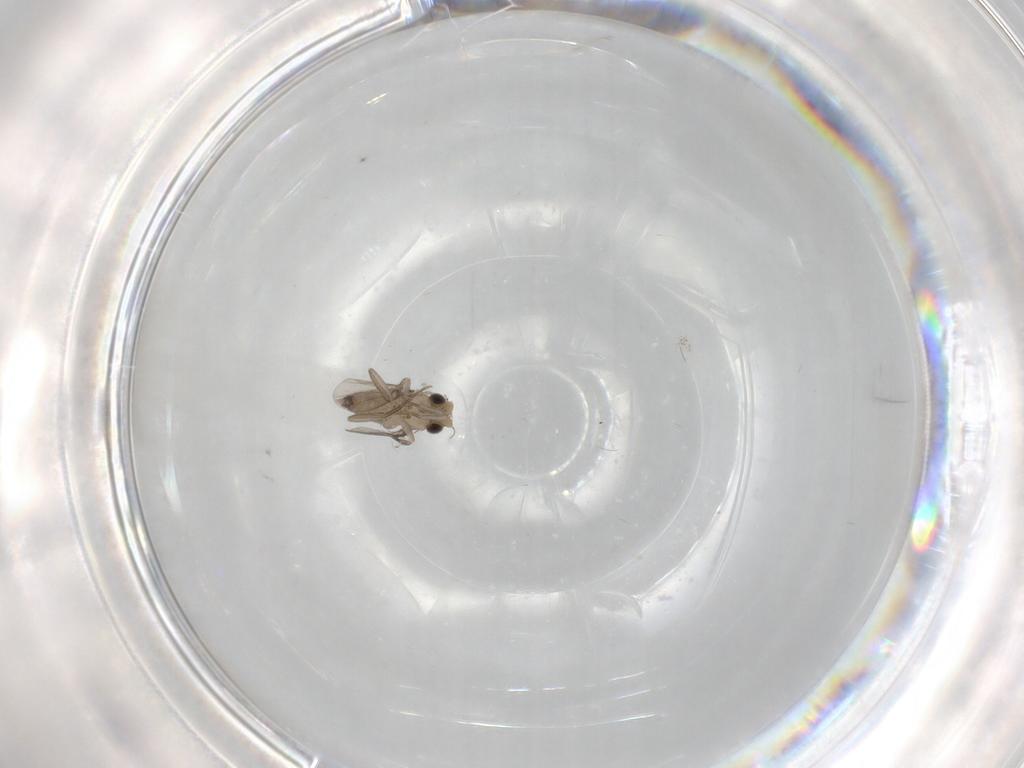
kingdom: Animalia
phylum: Arthropoda
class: Insecta
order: Diptera
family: Phoridae
